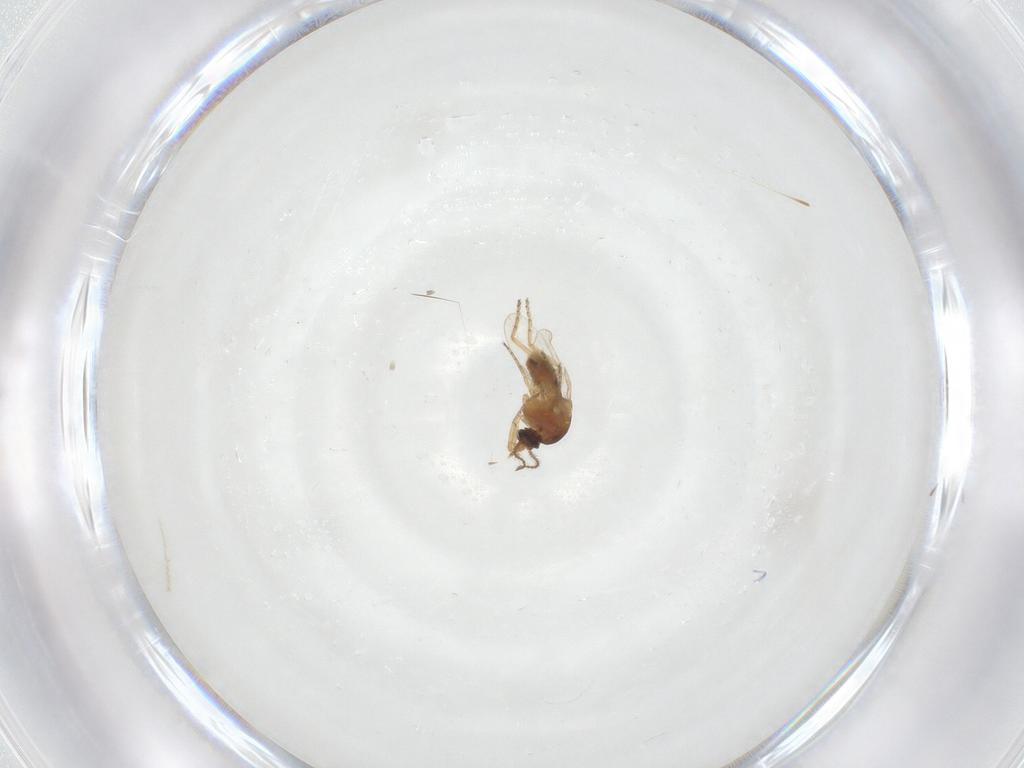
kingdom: Animalia
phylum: Arthropoda
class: Insecta
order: Diptera
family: Ceratopogonidae
